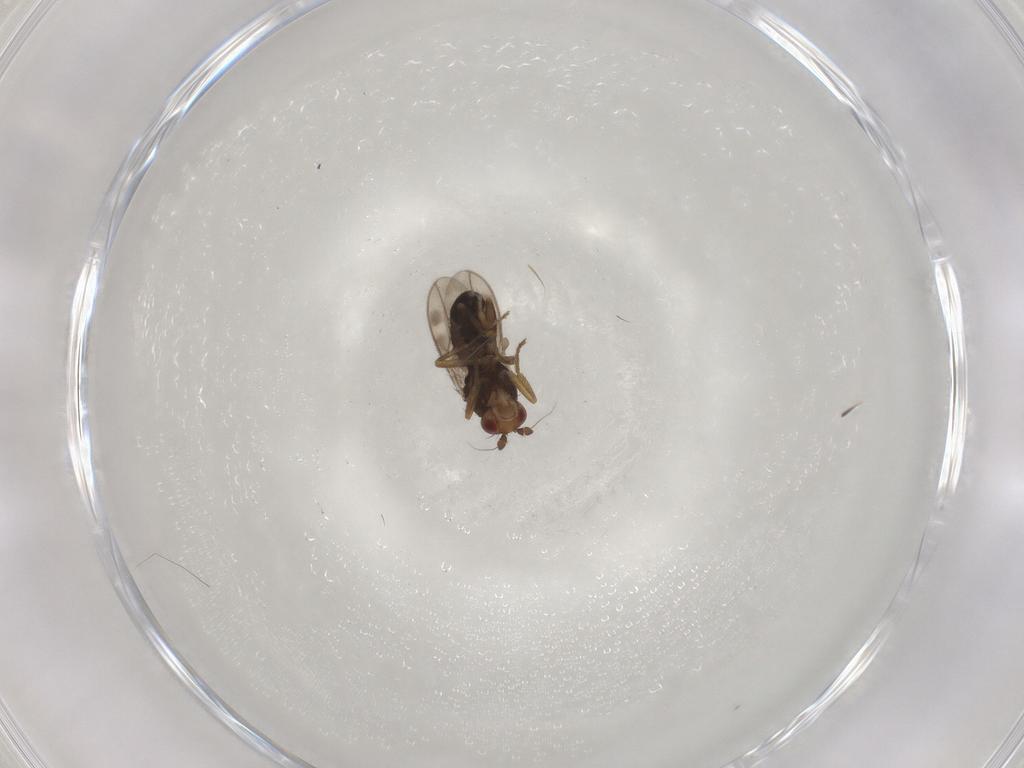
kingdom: Animalia
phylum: Arthropoda
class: Insecta
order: Diptera
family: Sphaeroceridae
